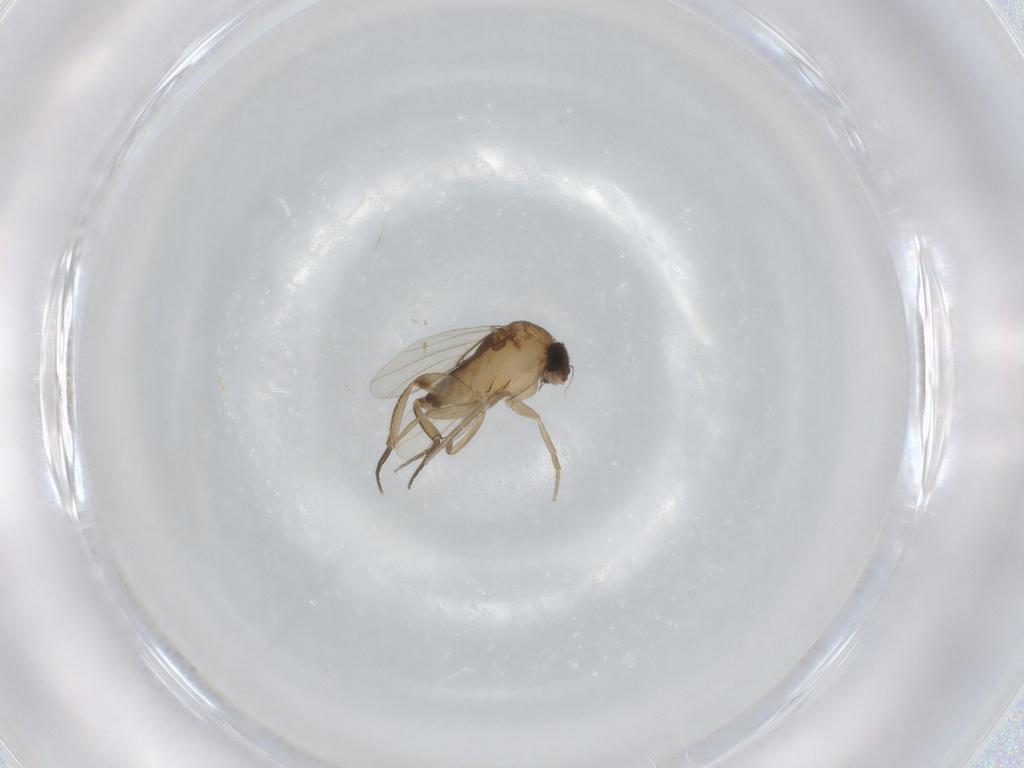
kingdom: Animalia
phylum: Arthropoda
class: Insecta
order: Diptera
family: Phoridae
